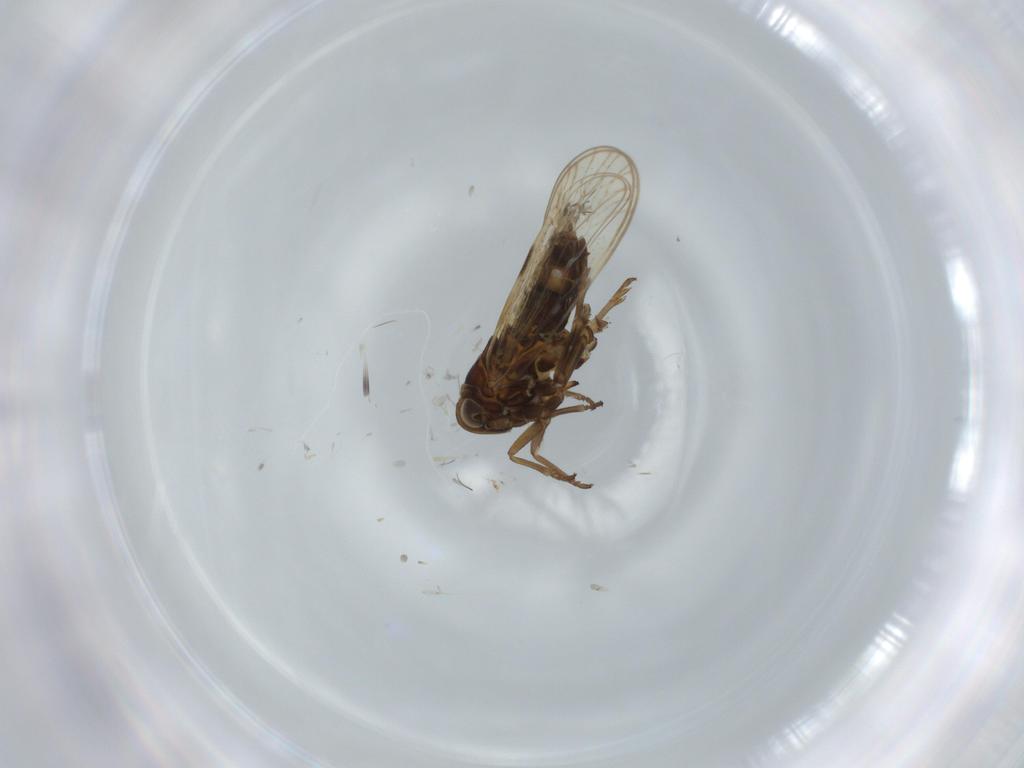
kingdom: Animalia
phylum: Arthropoda
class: Insecta
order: Hemiptera
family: Delphacidae
